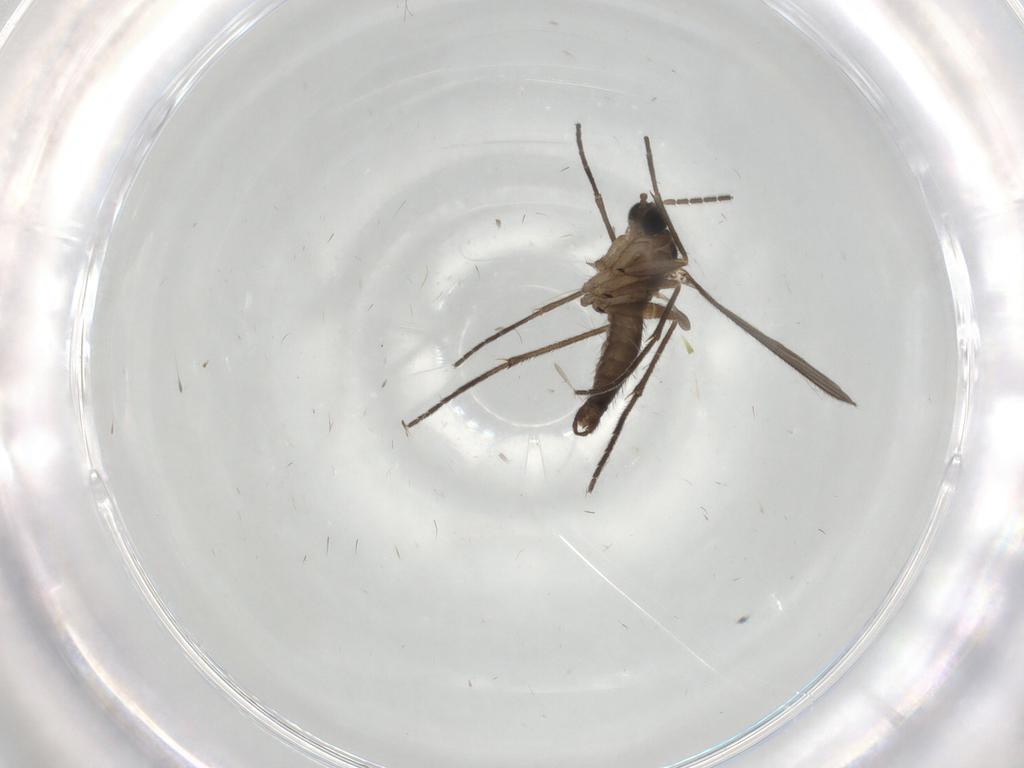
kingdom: Animalia
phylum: Arthropoda
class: Insecta
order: Diptera
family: Sciaridae
